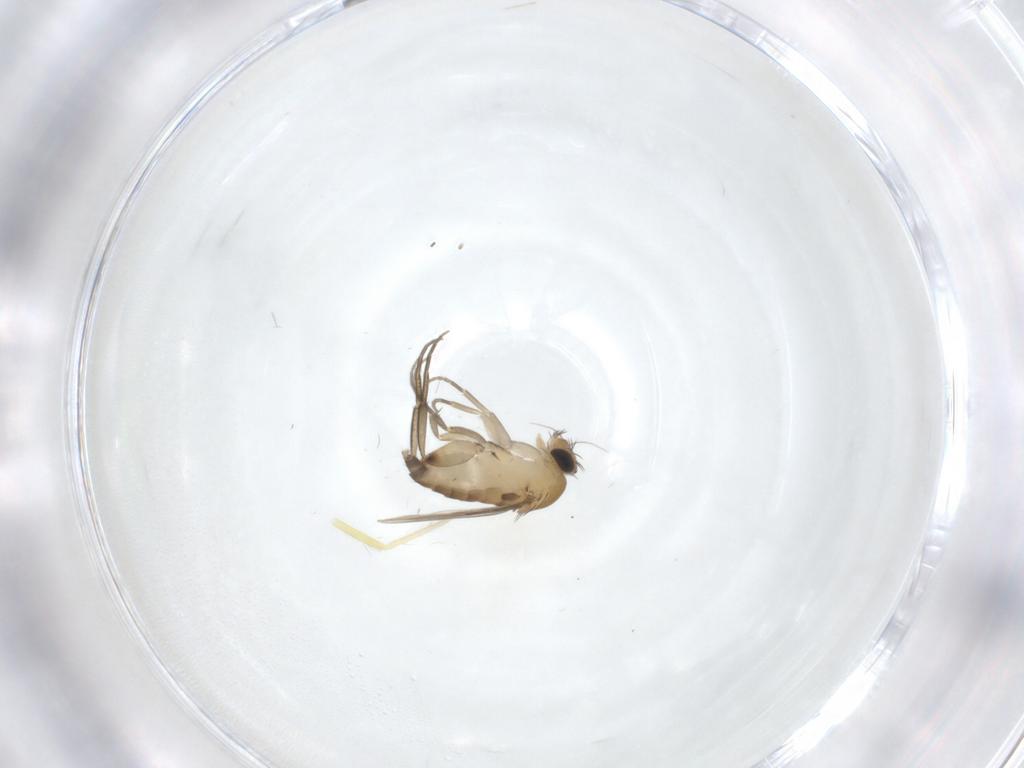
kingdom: Animalia
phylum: Arthropoda
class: Insecta
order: Diptera
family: Phoridae
